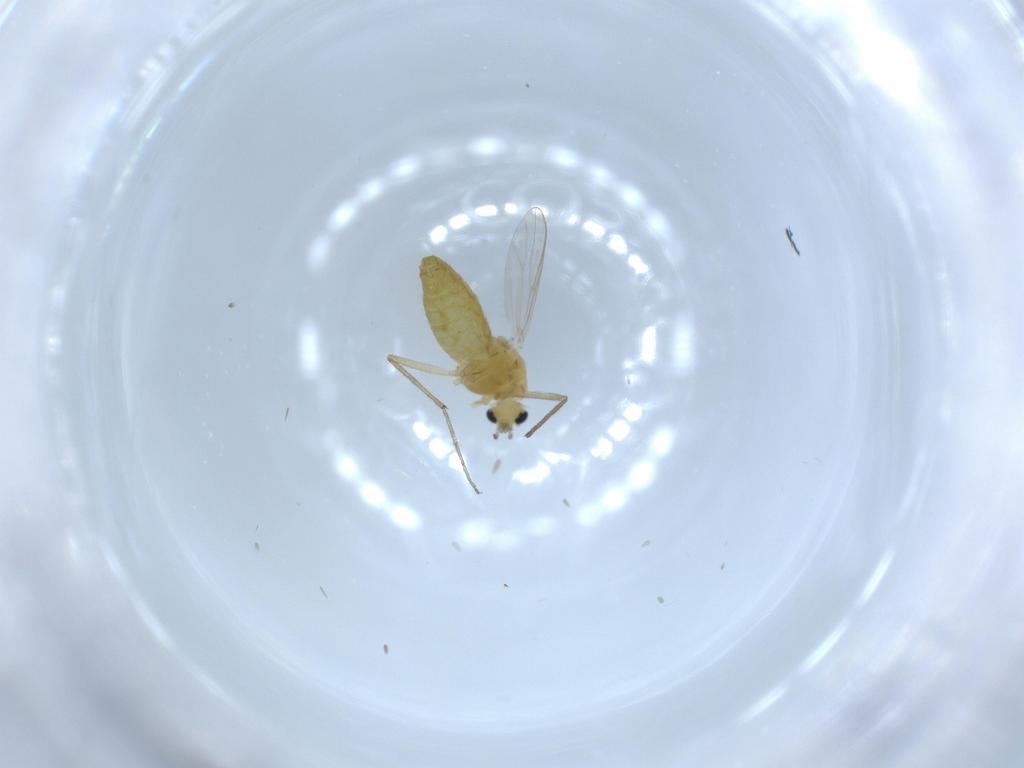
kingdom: Animalia
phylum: Arthropoda
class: Insecta
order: Diptera
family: Chironomidae
